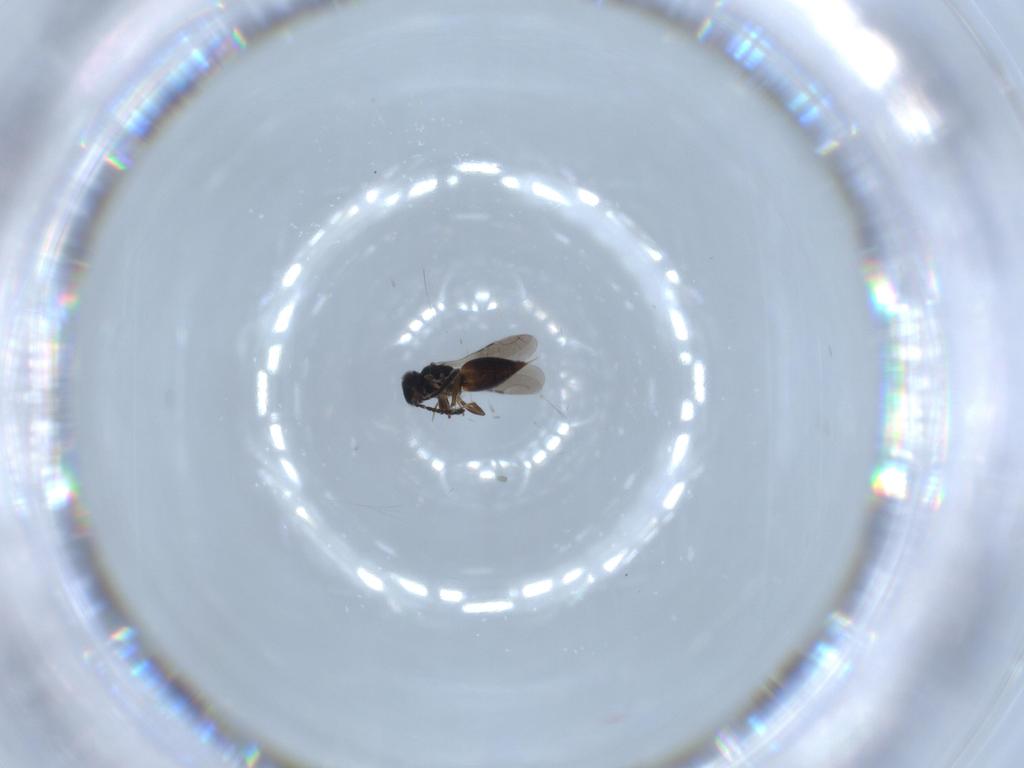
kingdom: Animalia
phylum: Arthropoda
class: Insecta
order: Hymenoptera
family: Ceraphronidae
